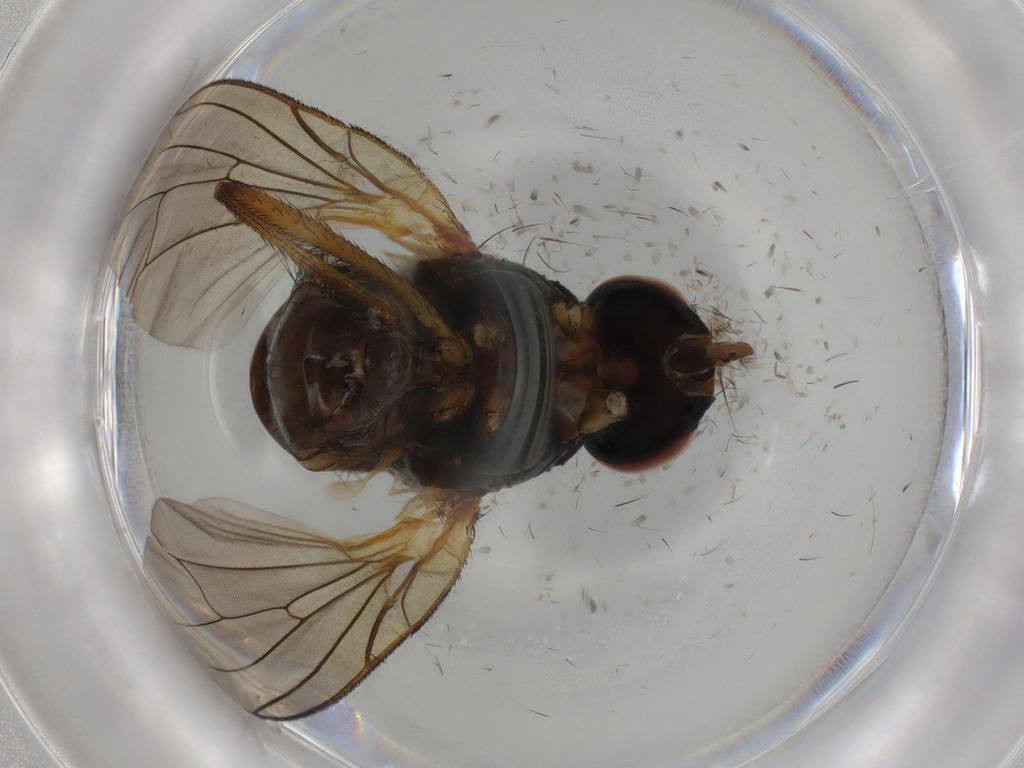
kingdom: Animalia
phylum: Arthropoda
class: Insecta
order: Diptera
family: Anthomyiidae
